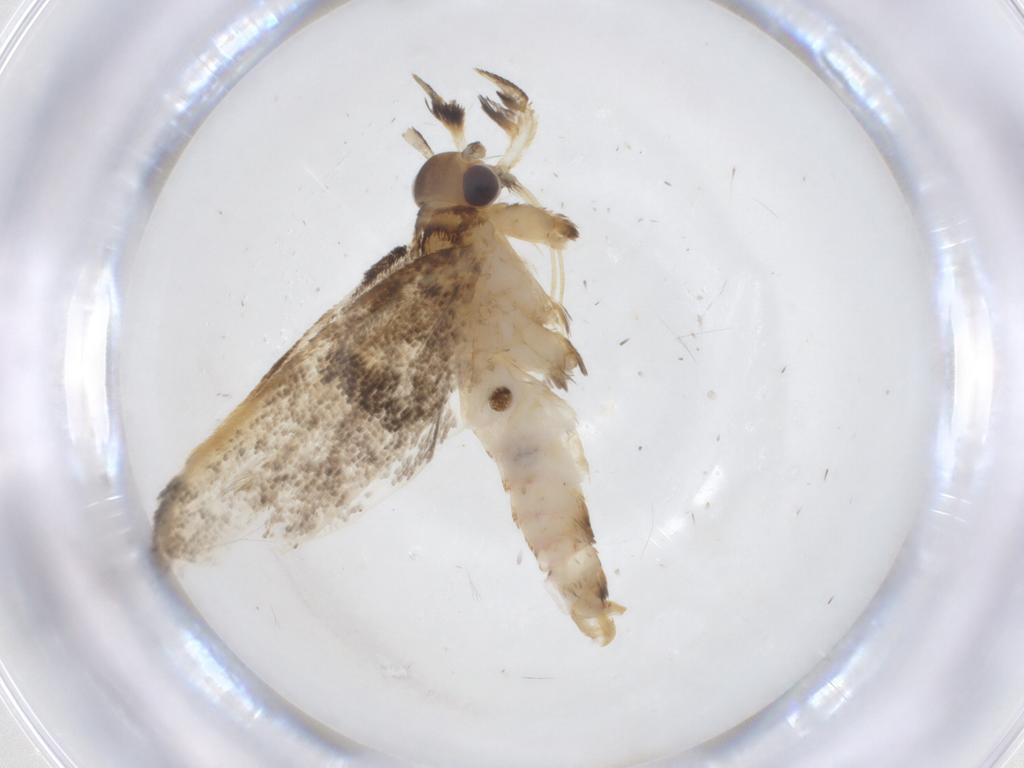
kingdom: Animalia
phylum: Arthropoda
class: Insecta
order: Lepidoptera
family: Lecithoceridae
